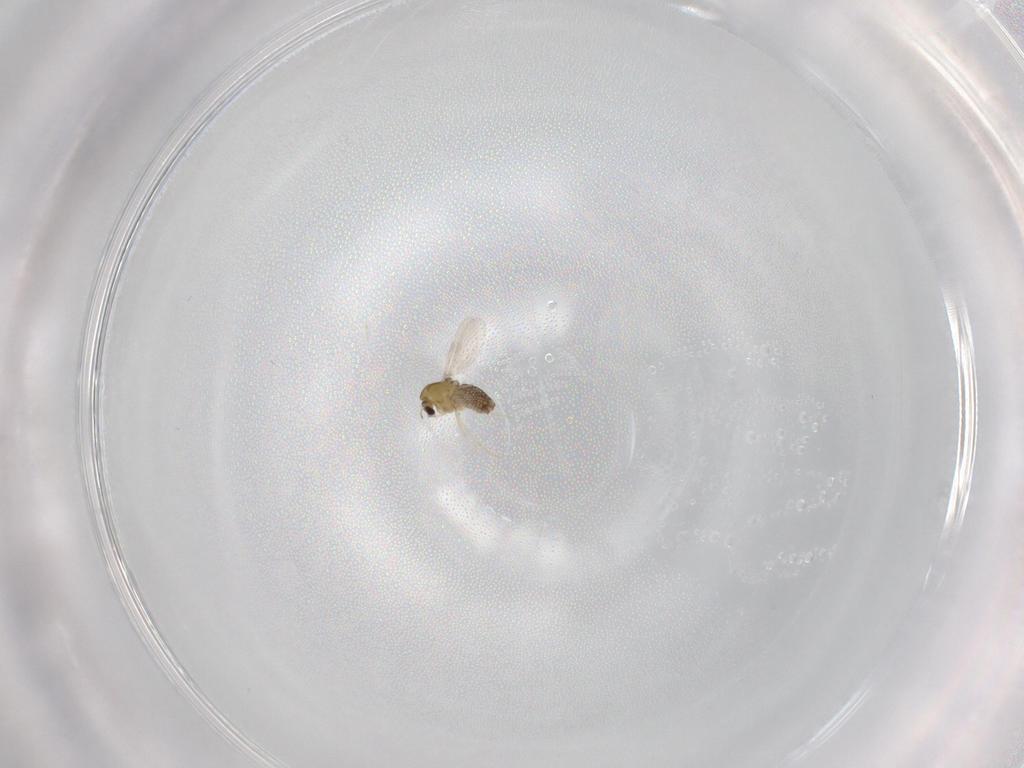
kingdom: Animalia
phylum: Arthropoda
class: Insecta
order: Diptera
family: Chironomidae
